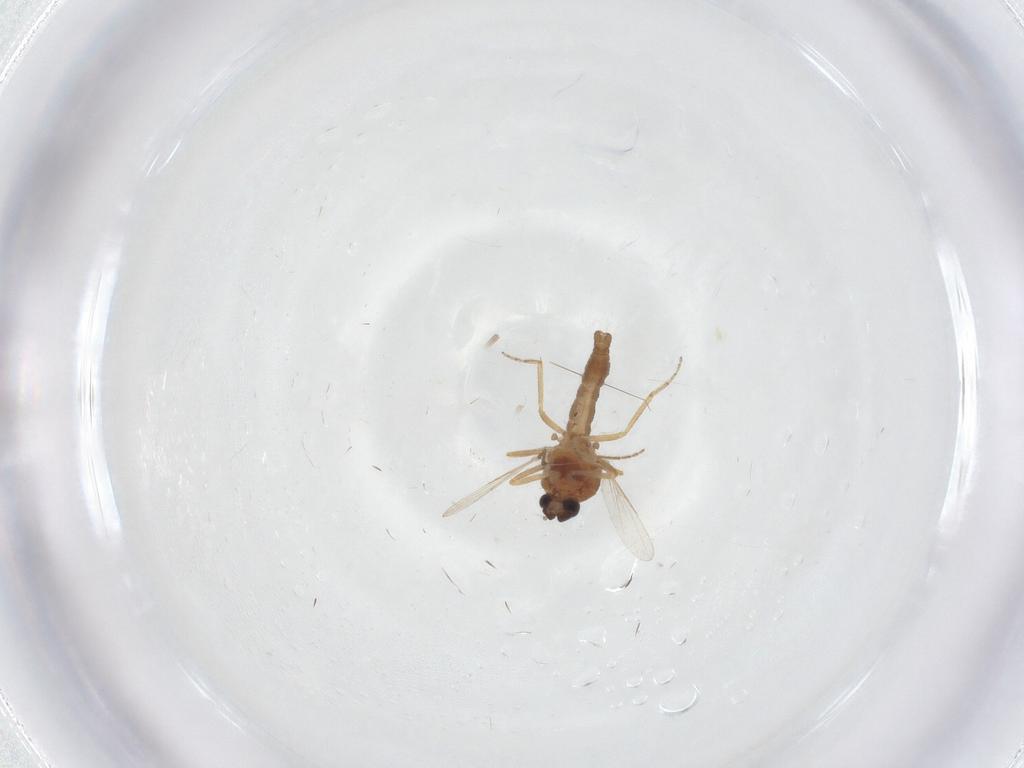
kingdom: Animalia
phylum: Arthropoda
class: Insecta
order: Diptera
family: Ceratopogonidae
